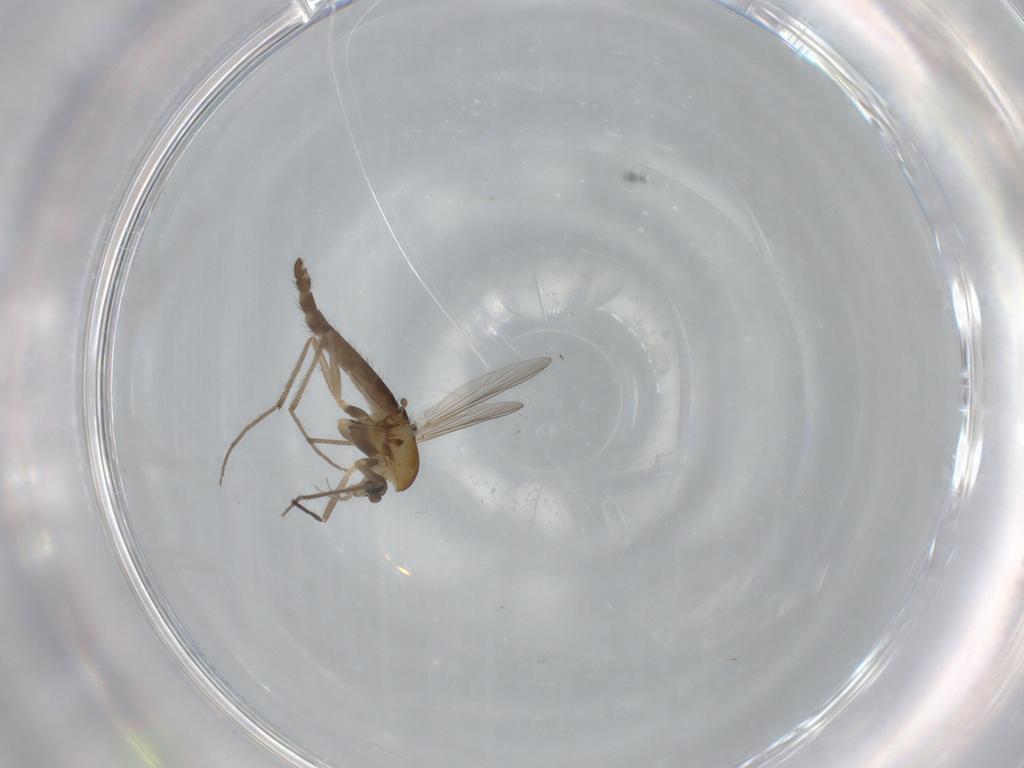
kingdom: Animalia
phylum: Arthropoda
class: Insecta
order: Diptera
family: Chironomidae
